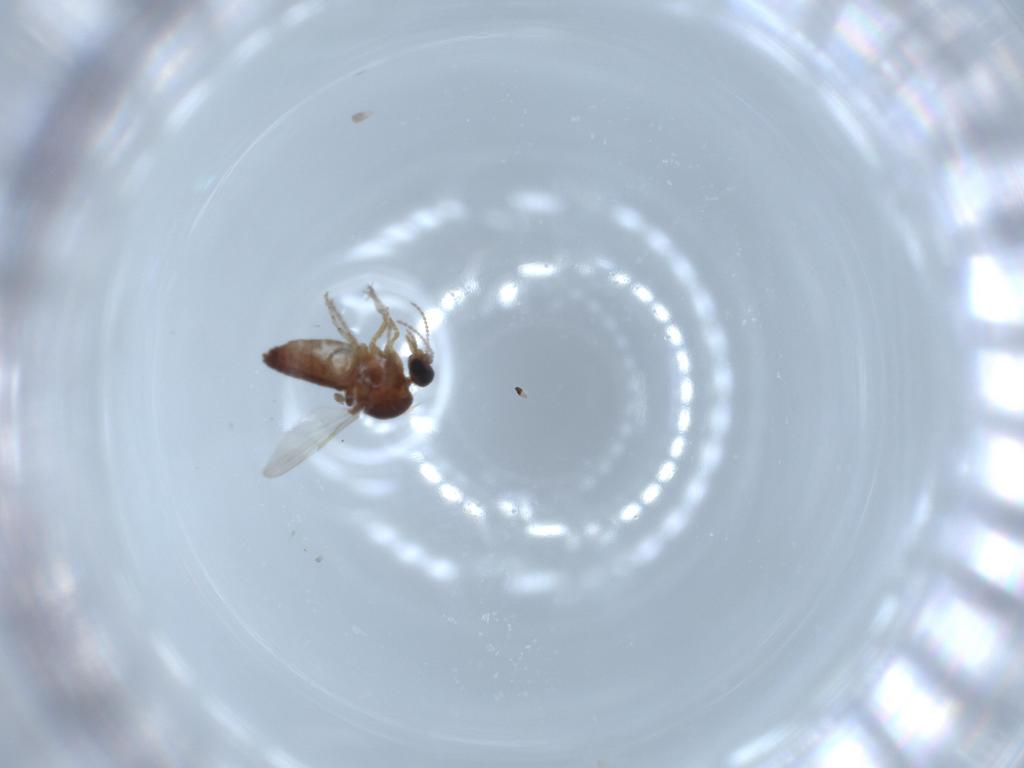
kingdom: Animalia
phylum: Arthropoda
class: Insecta
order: Diptera
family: Ceratopogonidae
